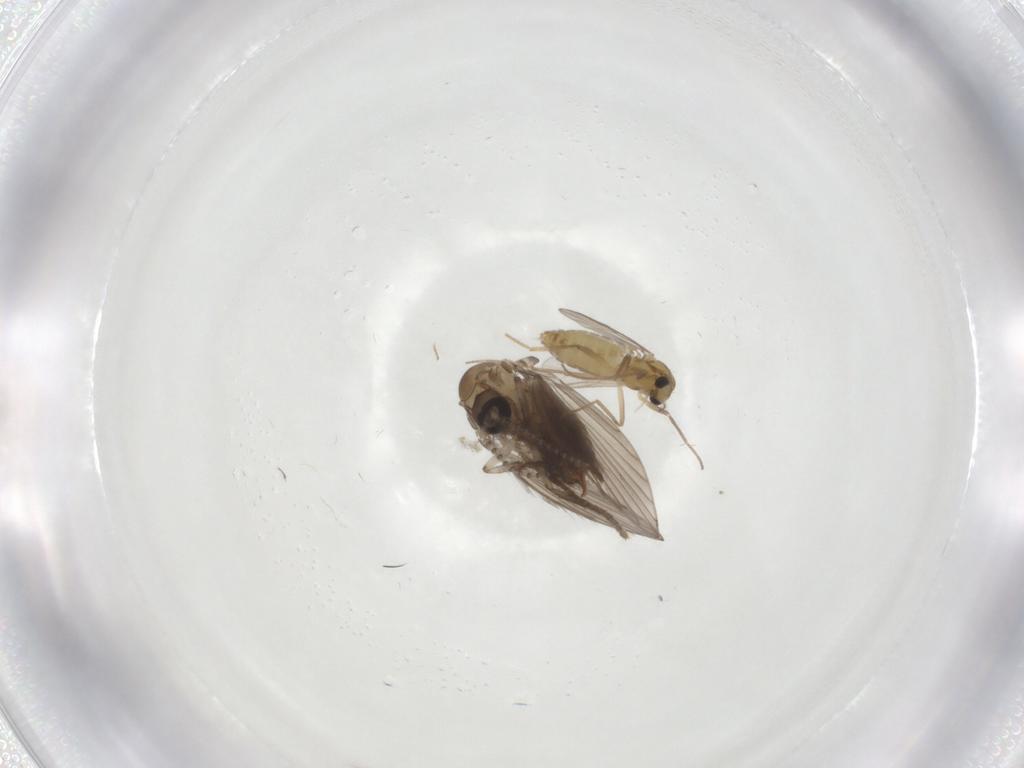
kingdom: Animalia
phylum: Arthropoda
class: Insecta
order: Diptera
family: Chironomidae
